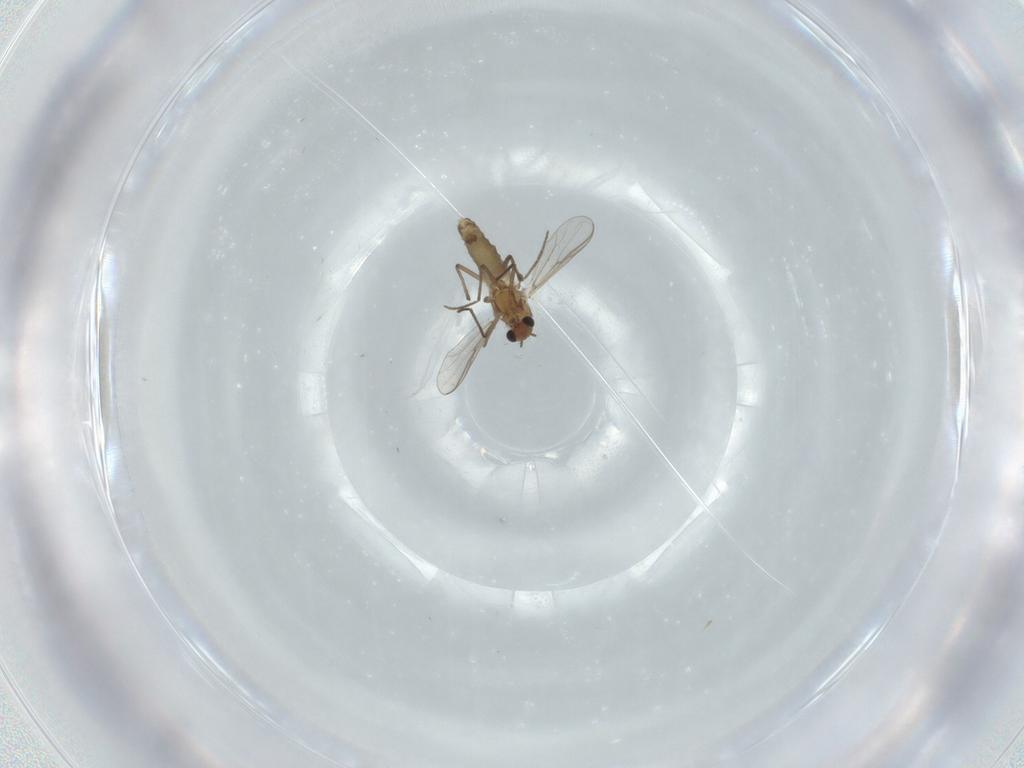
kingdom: Animalia
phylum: Arthropoda
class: Insecta
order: Diptera
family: Chironomidae
